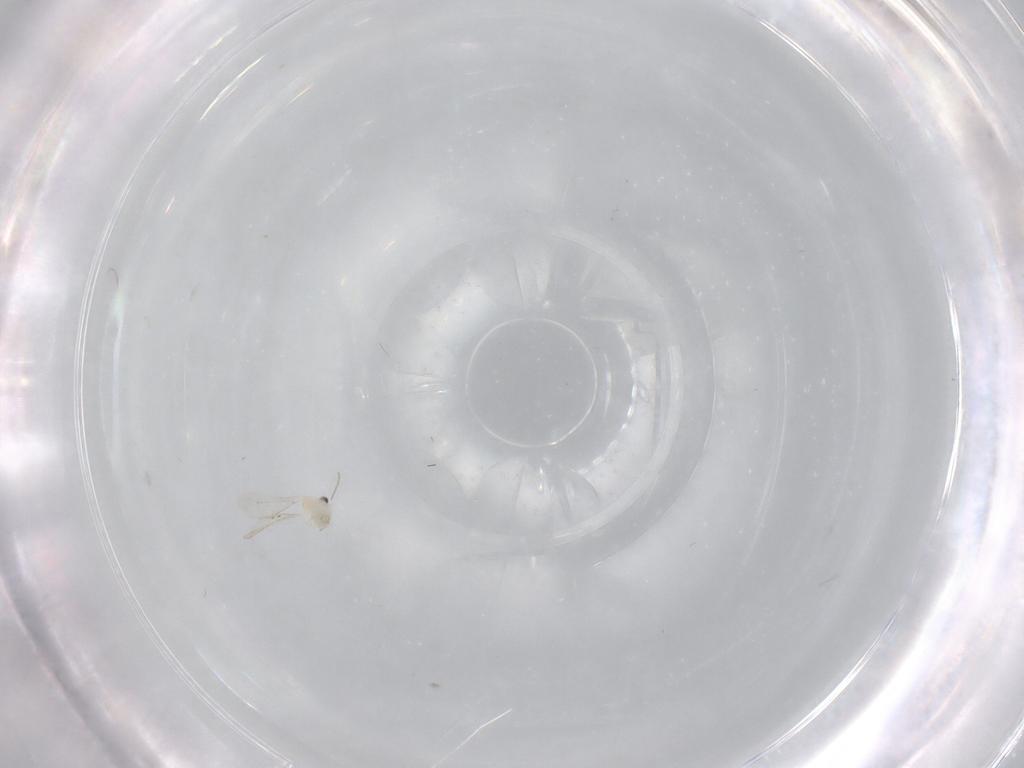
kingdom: Animalia
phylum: Arthropoda
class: Insecta
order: Diptera
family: Cecidomyiidae
